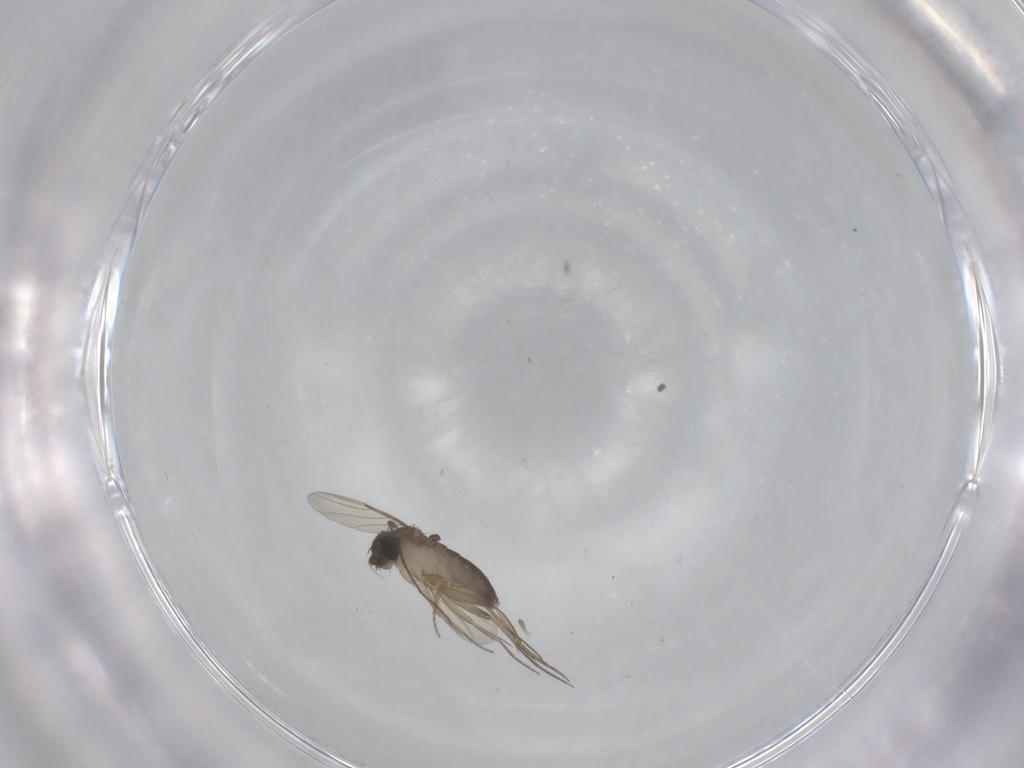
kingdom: Animalia
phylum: Arthropoda
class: Insecta
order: Diptera
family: Phoridae
